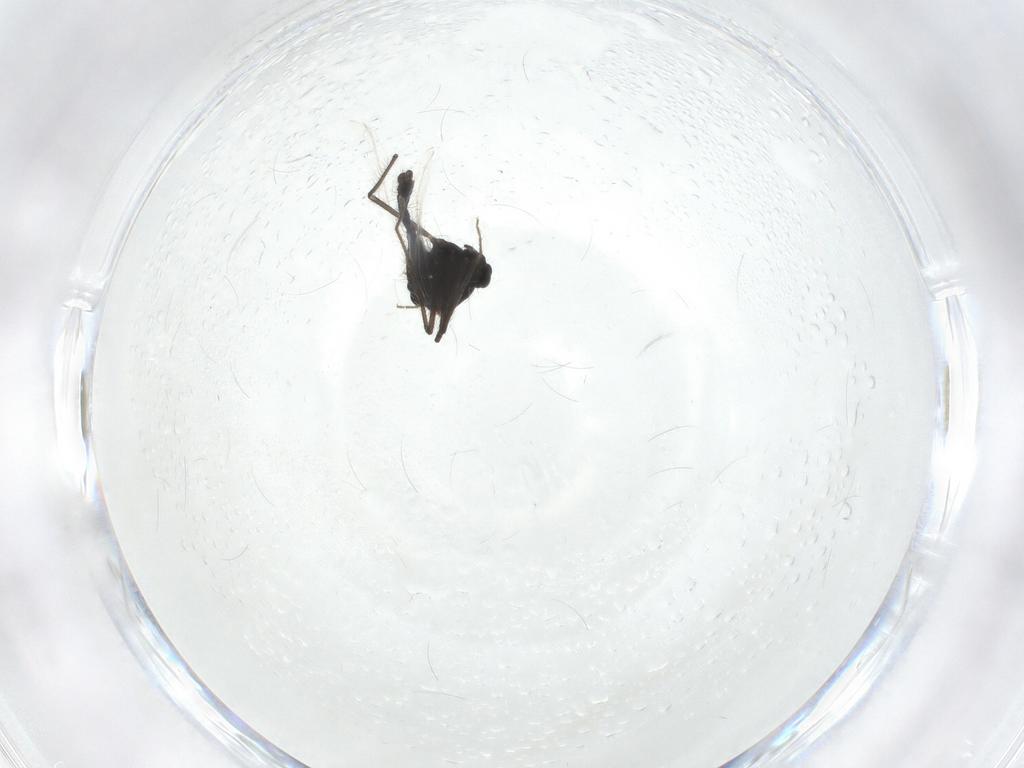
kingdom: Animalia
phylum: Arthropoda
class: Insecta
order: Diptera
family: Chironomidae
